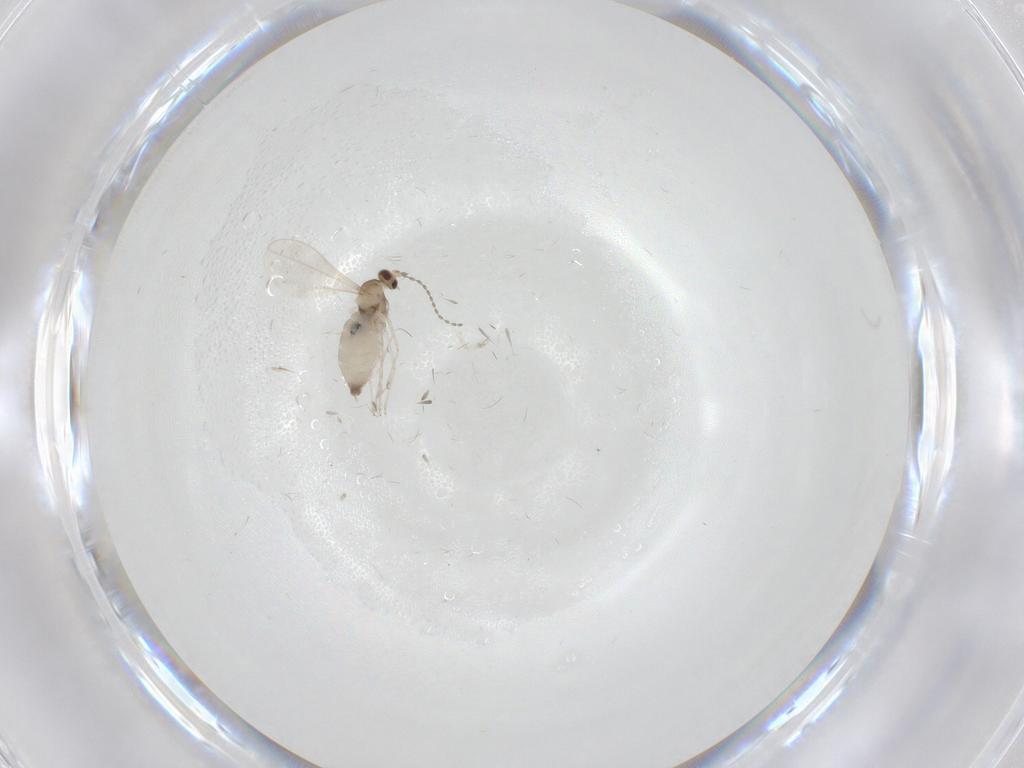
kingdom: Animalia
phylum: Arthropoda
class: Insecta
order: Diptera
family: Cecidomyiidae
